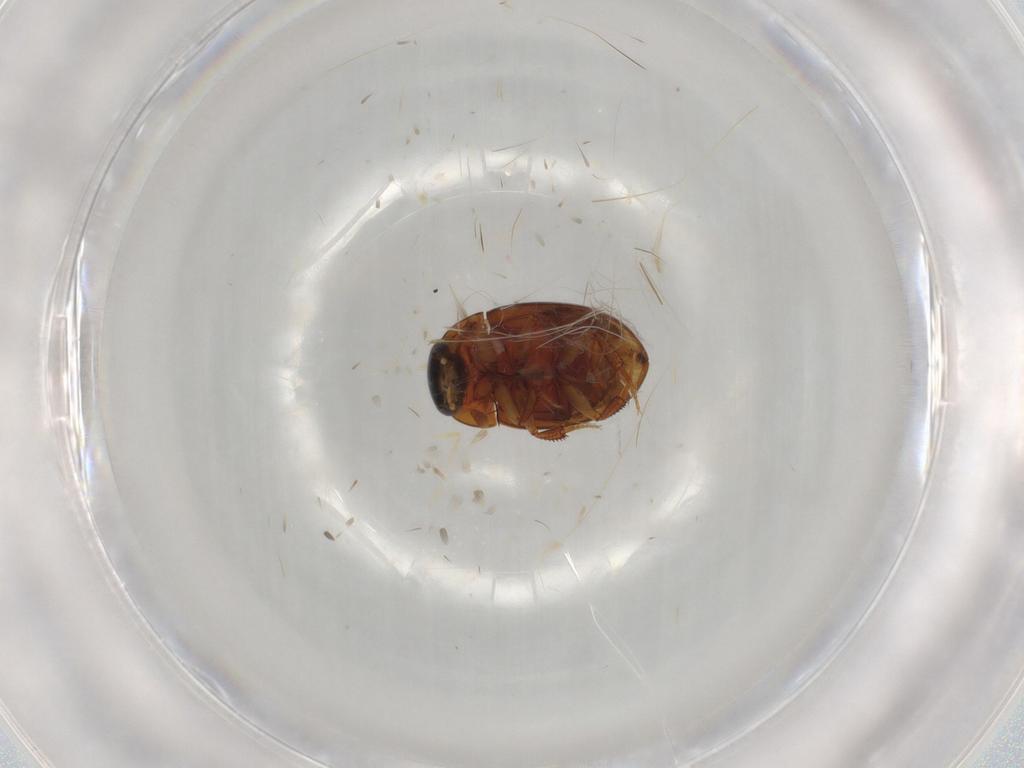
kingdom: Animalia
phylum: Arthropoda
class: Insecta
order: Coleoptera
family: Hydrophilidae
